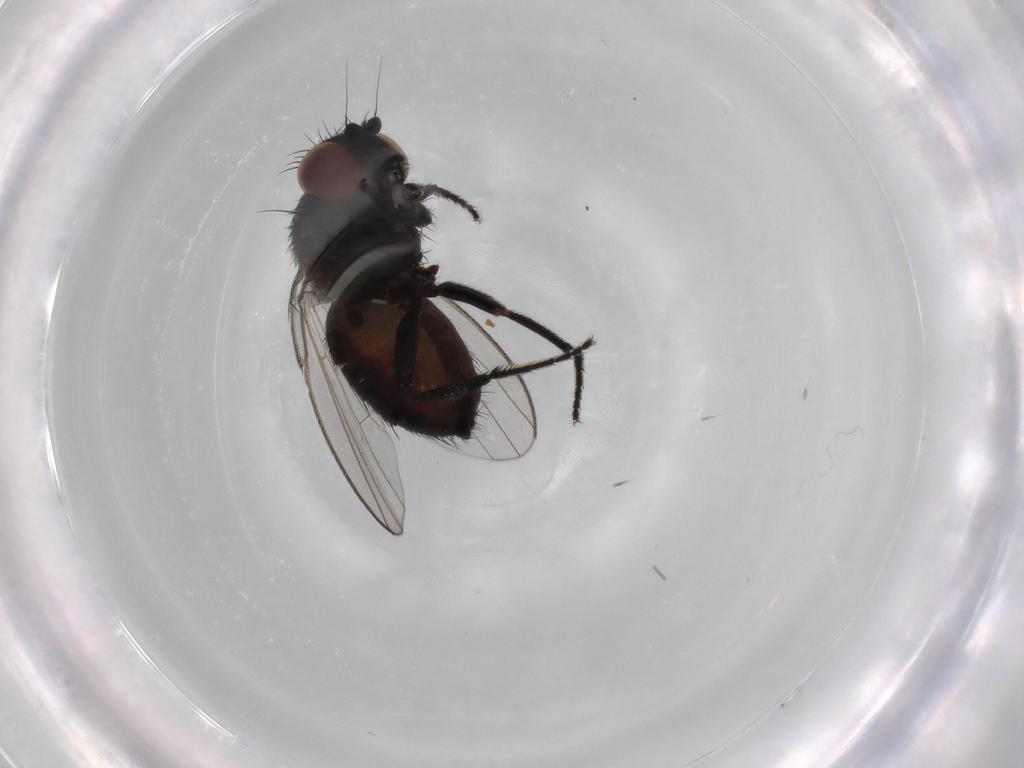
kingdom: Animalia
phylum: Arthropoda
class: Insecta
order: Diptera
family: Milichiidae
